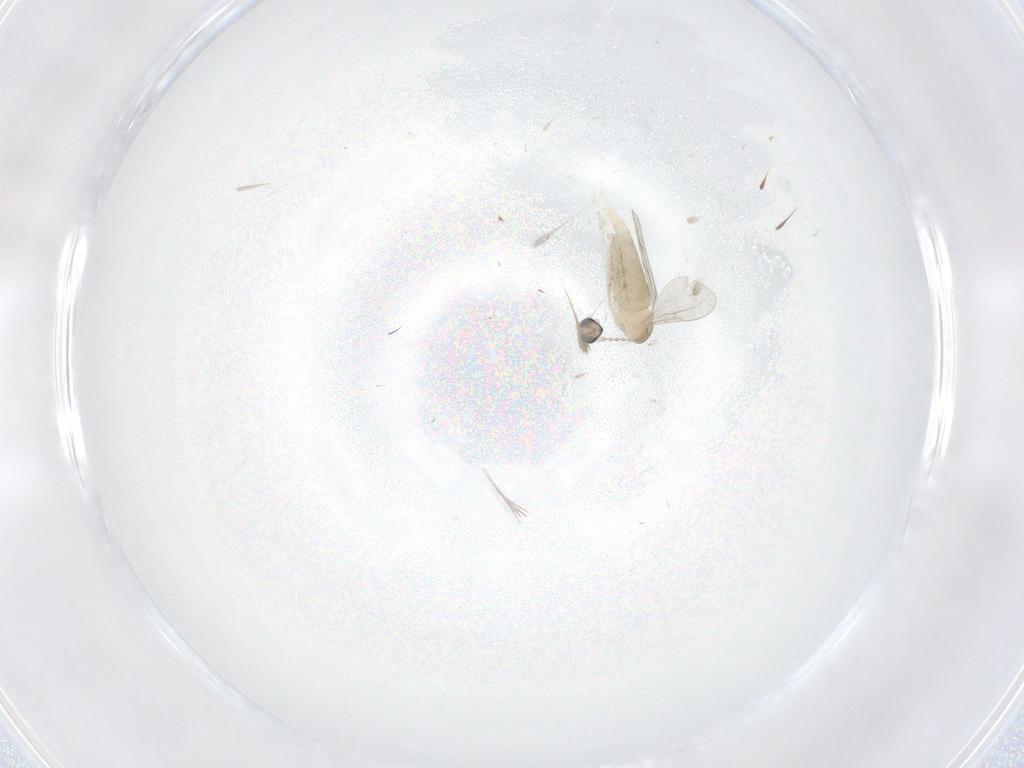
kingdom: Animalia
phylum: Arthropoda
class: Insecta
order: Diptera
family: Cecidomyiidae
